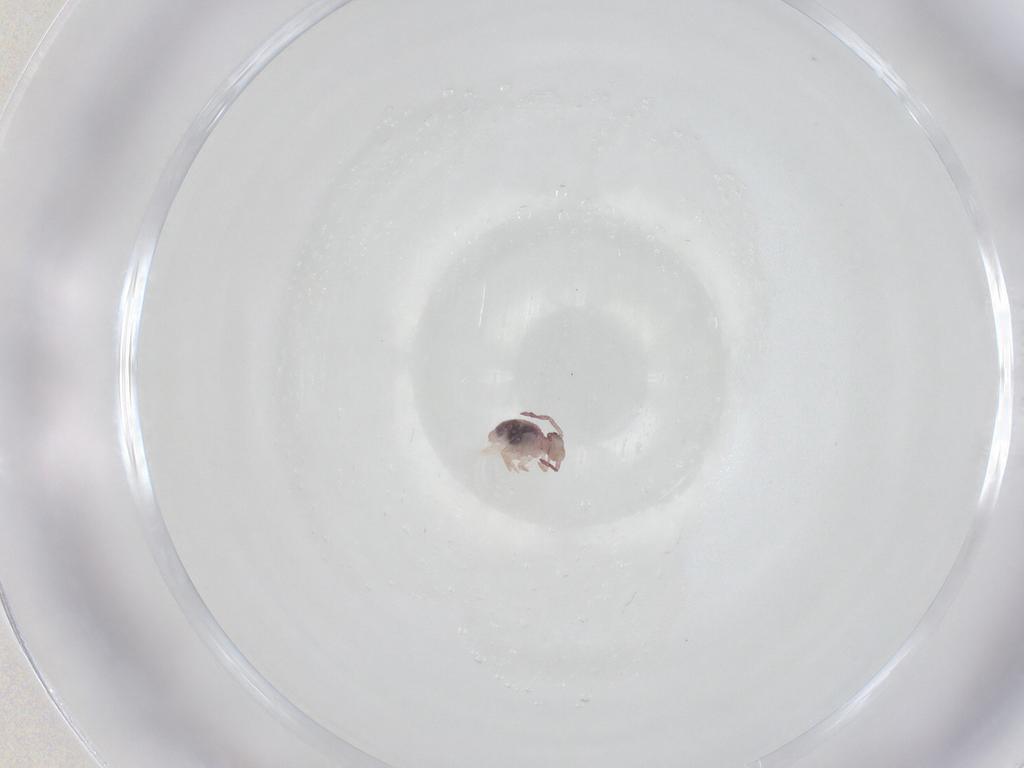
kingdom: Animalia
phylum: Arthropoda
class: Collembola
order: Symphypleona
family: Dicyrtomidae
